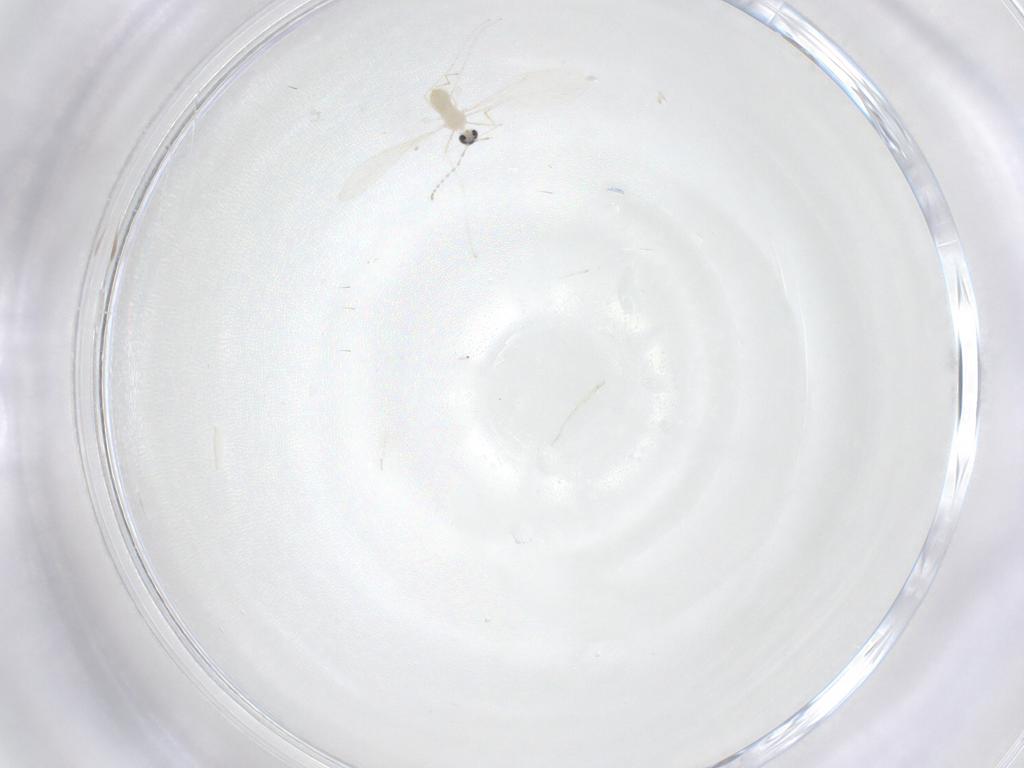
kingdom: Animalia
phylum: Arthropoda
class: Insecta
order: Diptera
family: Cecidomyiidae
